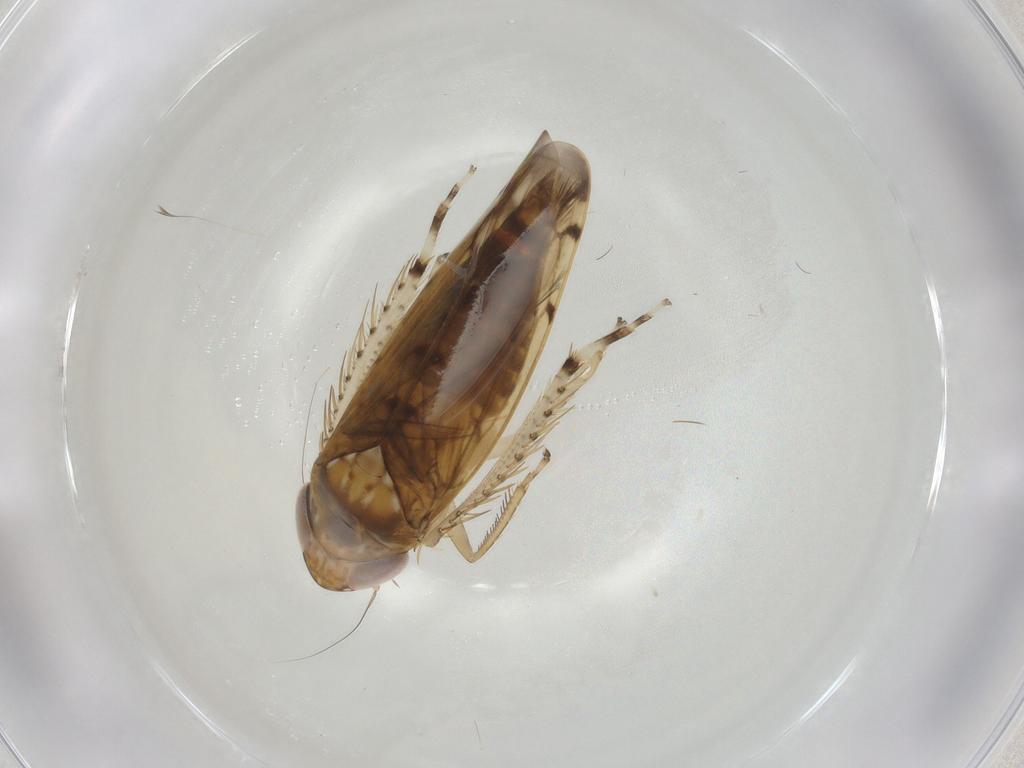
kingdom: Animalia
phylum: Arthropoda
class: Insecta
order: Hemiptera
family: Cicadellidae
